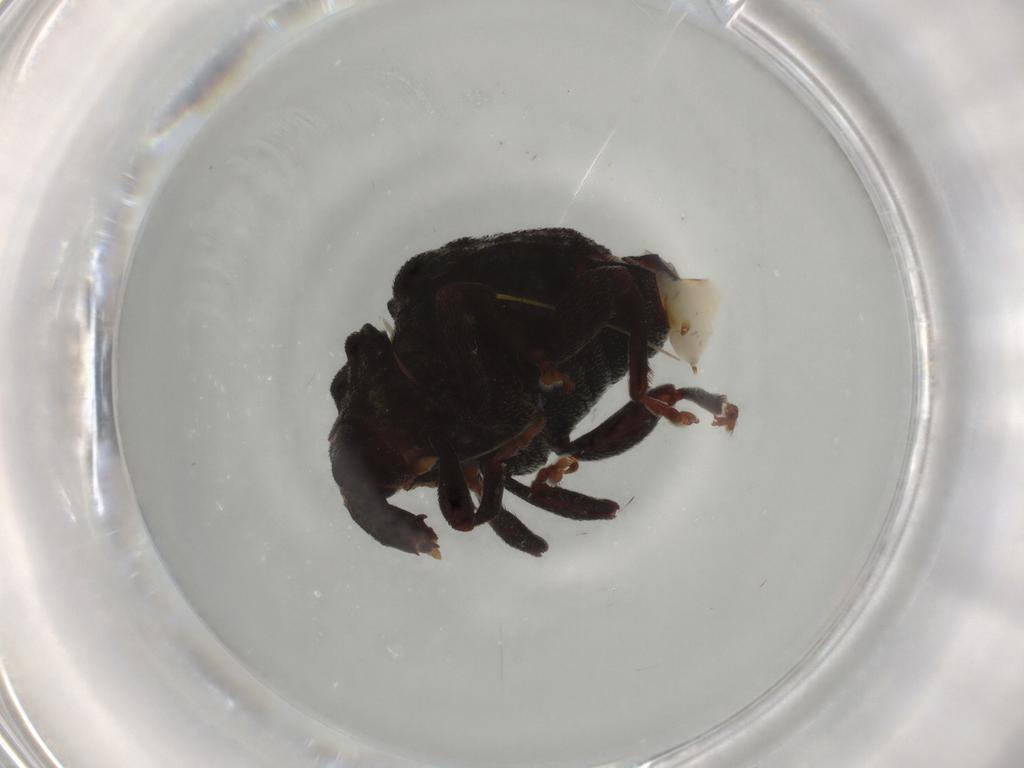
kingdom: Animalia
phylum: Arthropoda
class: Insecta
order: Coleoptera
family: Curculionidae
